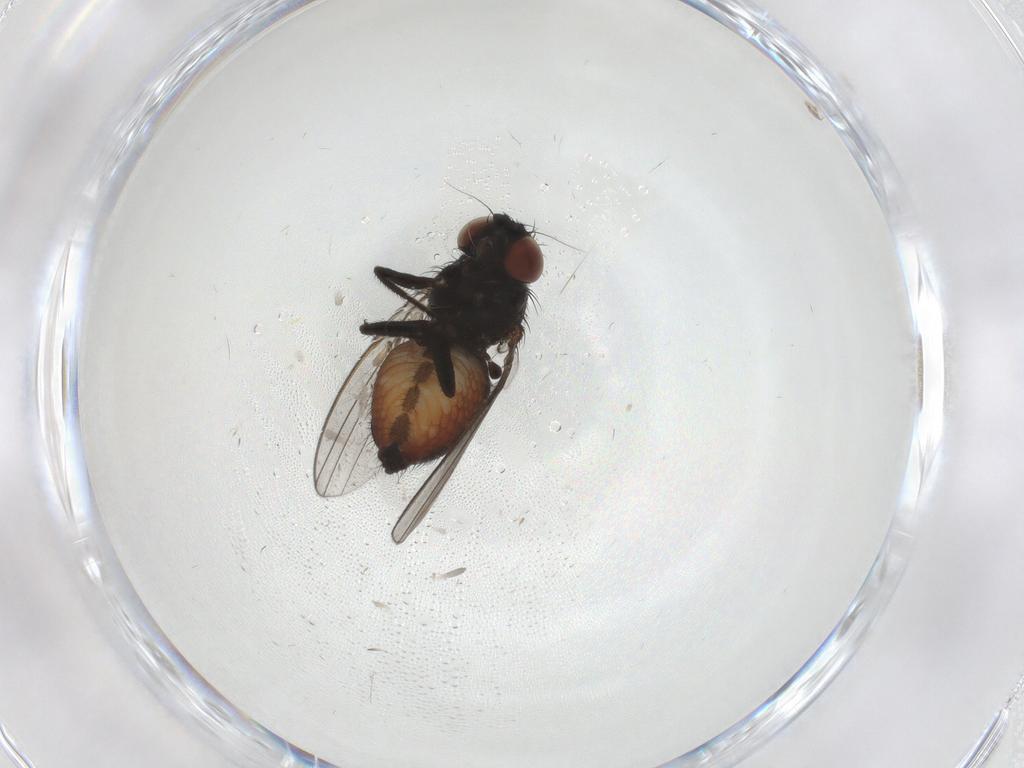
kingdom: Animalia
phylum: Arthropoda
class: Insecta
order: Diptera
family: Milichiidae
